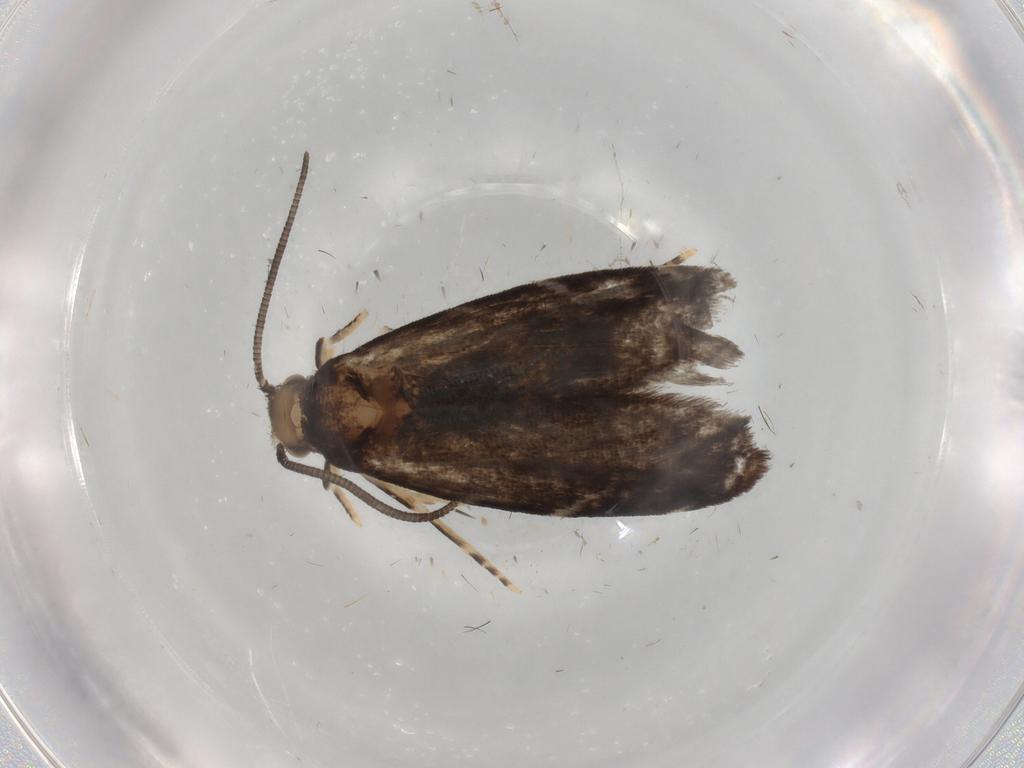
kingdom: Animalia
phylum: Arthropoda
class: Insecta
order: Lepidoptera
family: Dryadaulidae
